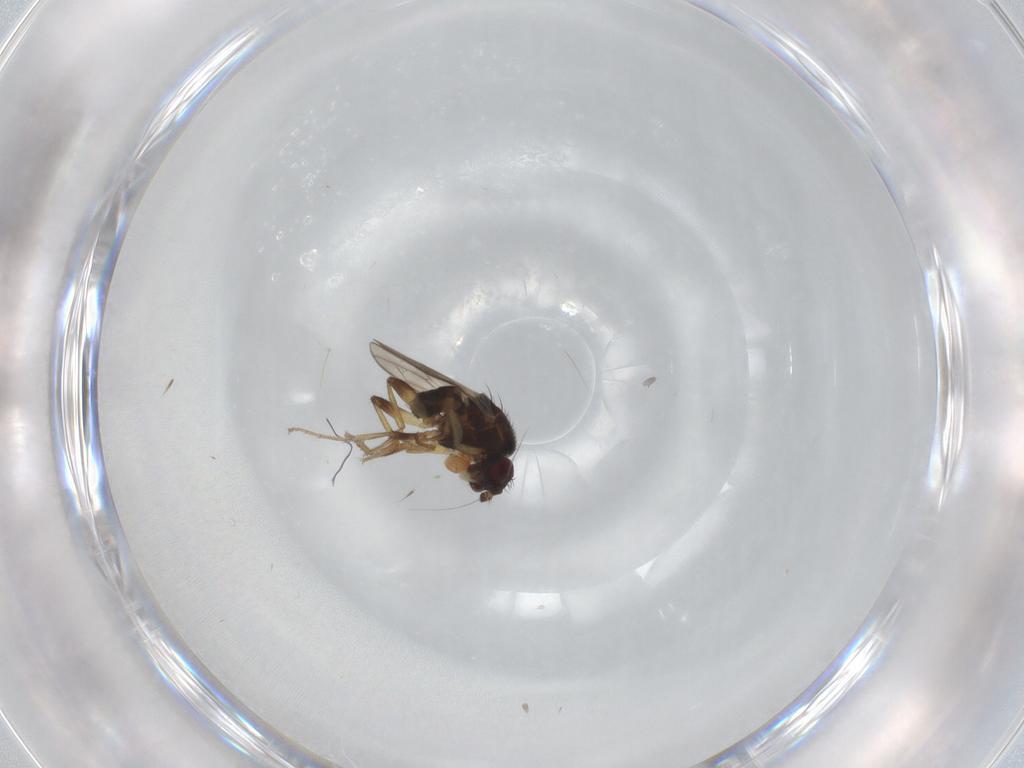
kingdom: Animalia
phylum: Arthropoda
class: Insecta
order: Diptera
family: Sphaeroceridae
